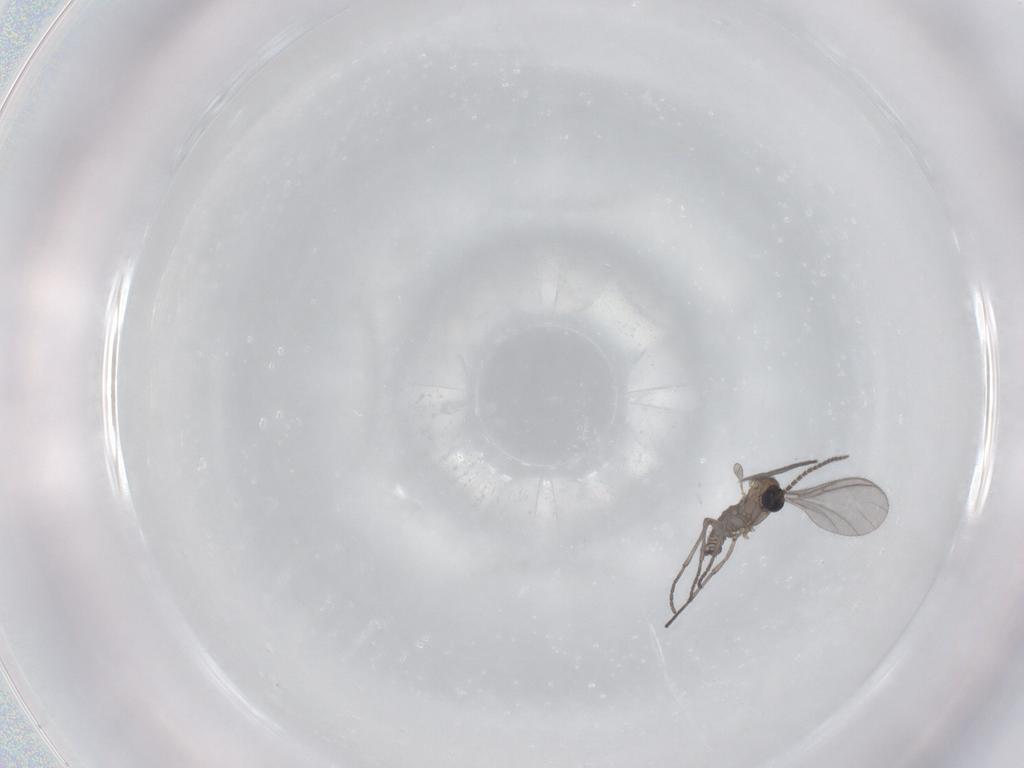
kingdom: Animalia
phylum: Arthropoda
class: Insecta
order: Diptera
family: Sciaridae
